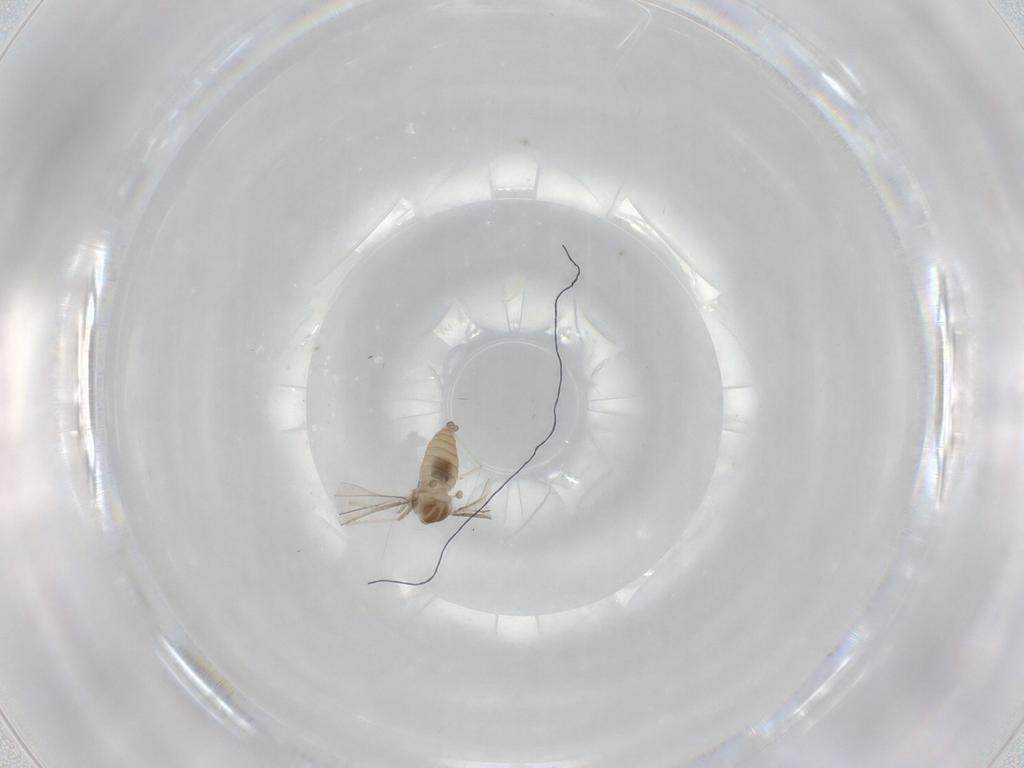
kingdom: Animalia
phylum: Arthropoda
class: Insecta
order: Diptera
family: Cecidomyiidae
